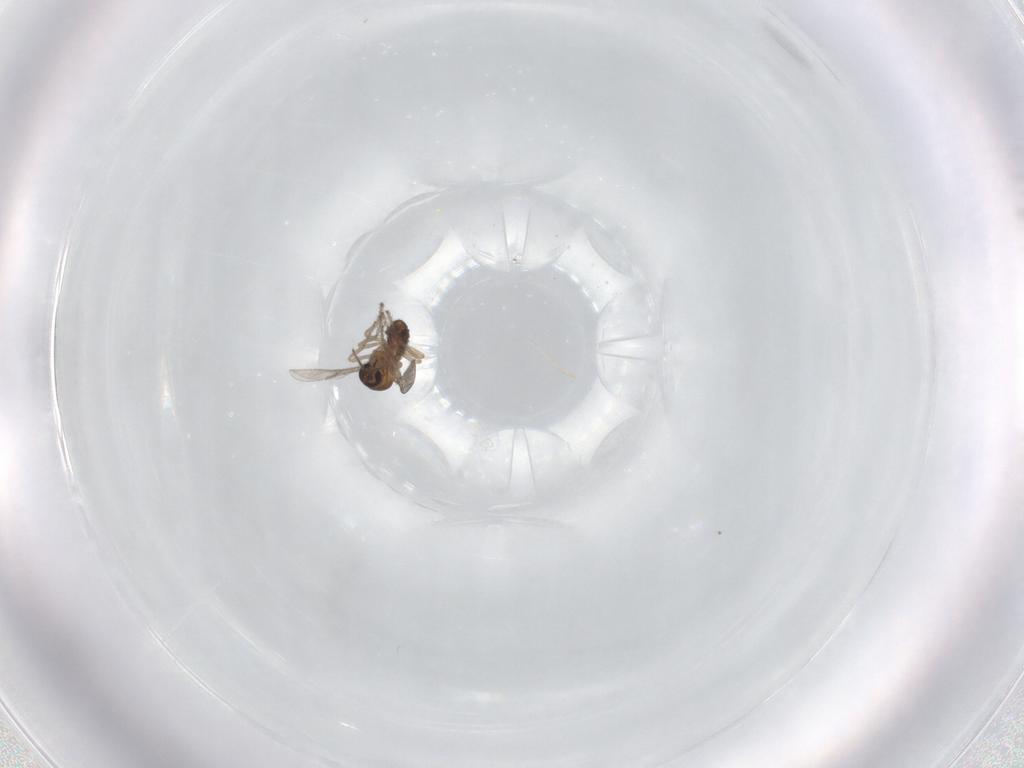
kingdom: Animalia
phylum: Arthropoda
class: Insecta
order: Diptera
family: Ceratopogonidae
